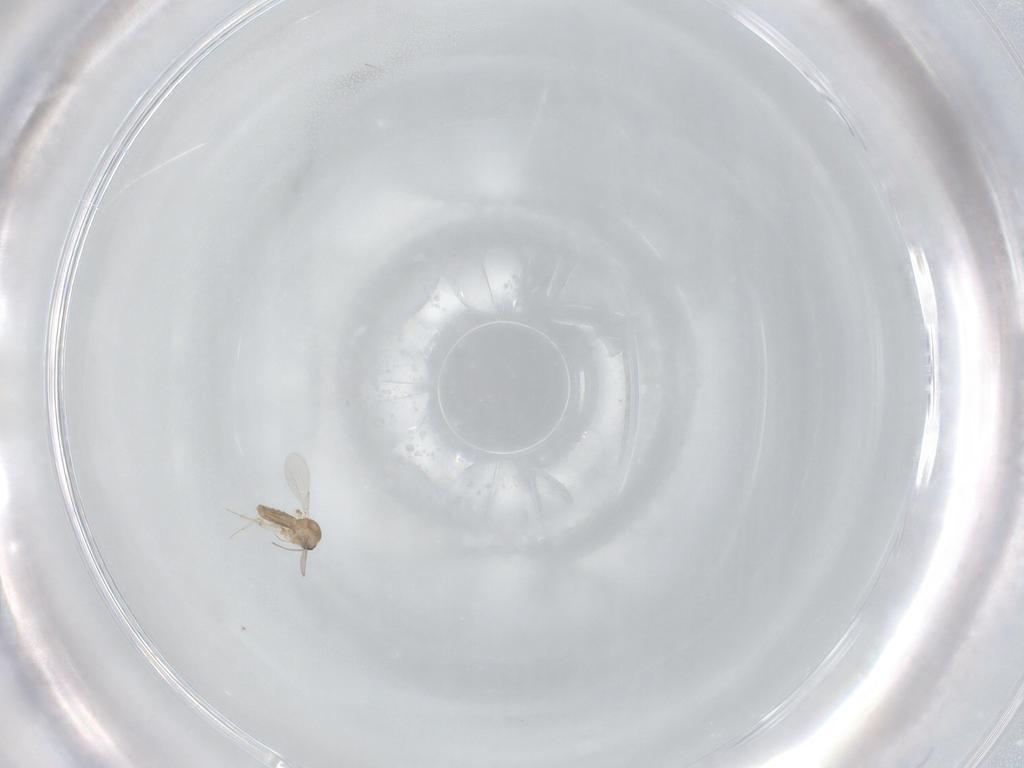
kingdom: Animalia
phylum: Arthropoda
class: Insecta
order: Diptera
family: Ceratopogonidae
